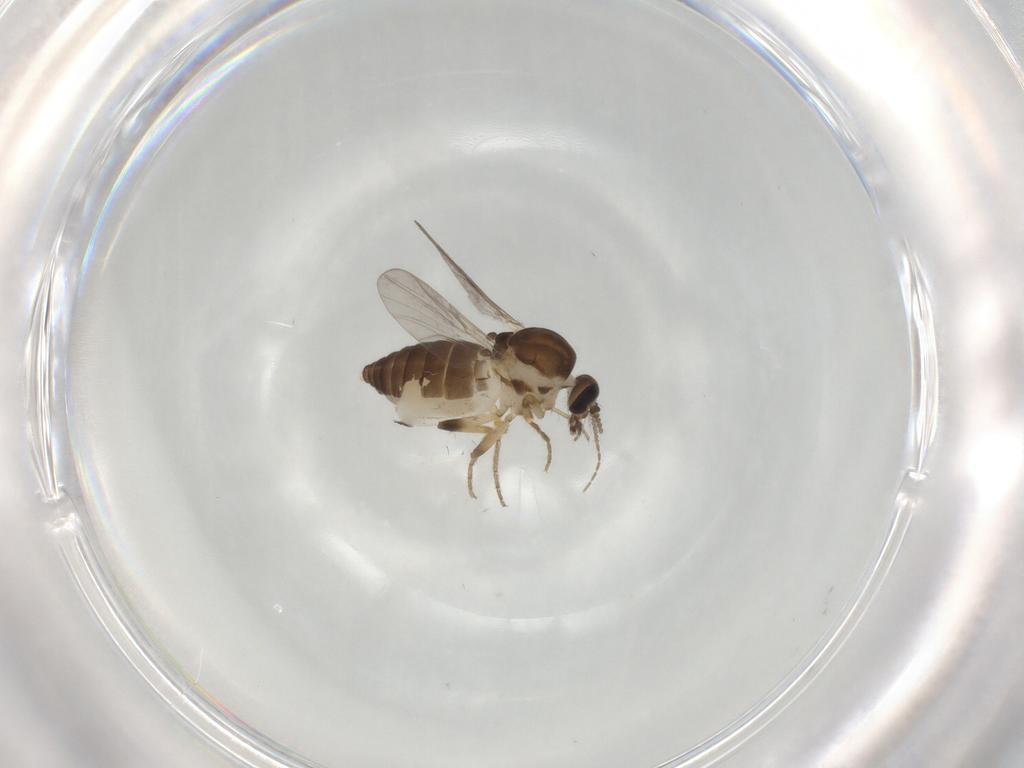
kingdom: Animalia
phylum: Arthropoda
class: Insecta
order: Diptera
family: Ceratopogonidae
